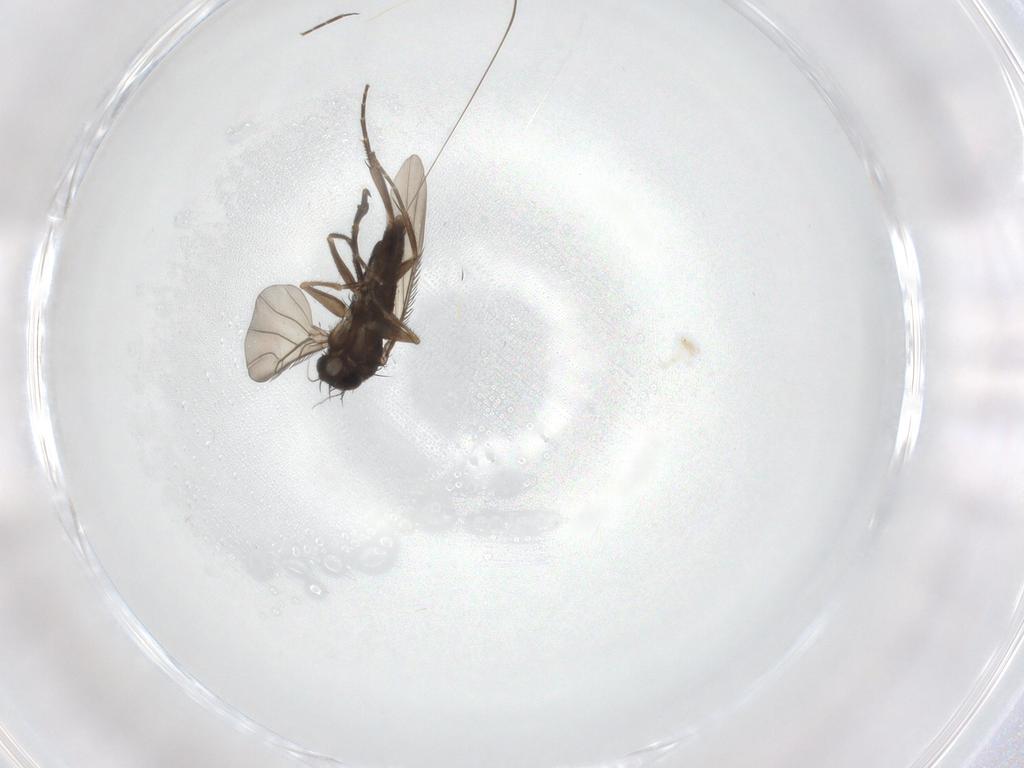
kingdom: Animalia
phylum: Arthropoda
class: Insecta
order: Diptera
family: Phoridae
